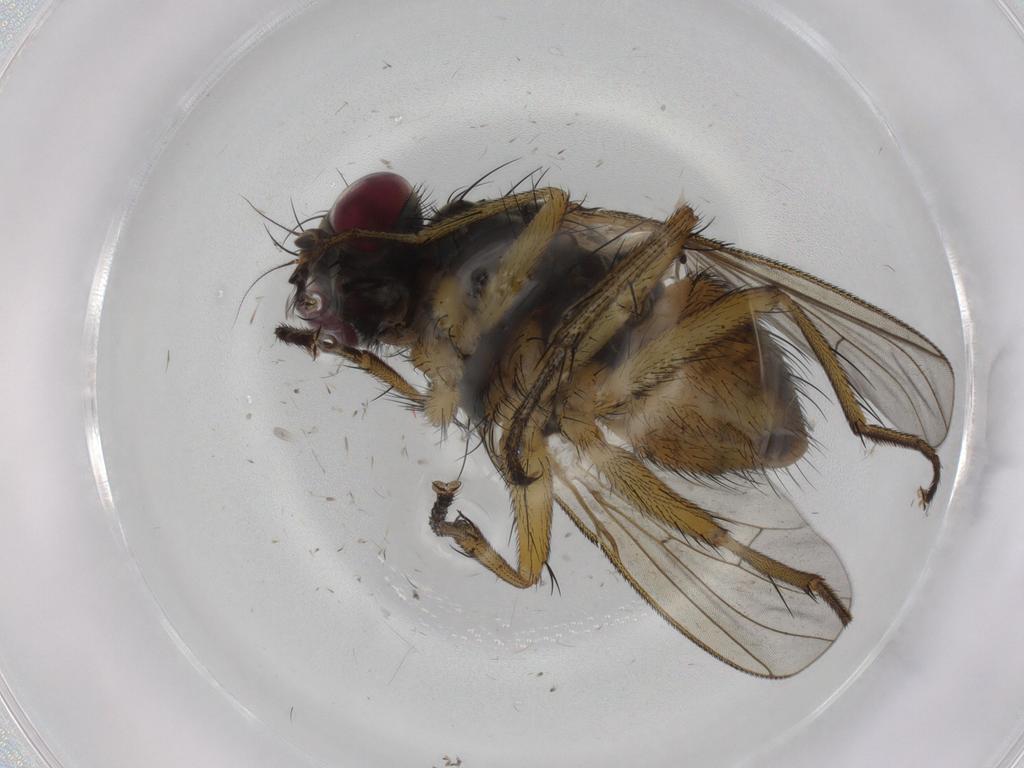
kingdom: Animalia
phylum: Arthropoda
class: Insecta
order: Diptera
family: Muscidae
